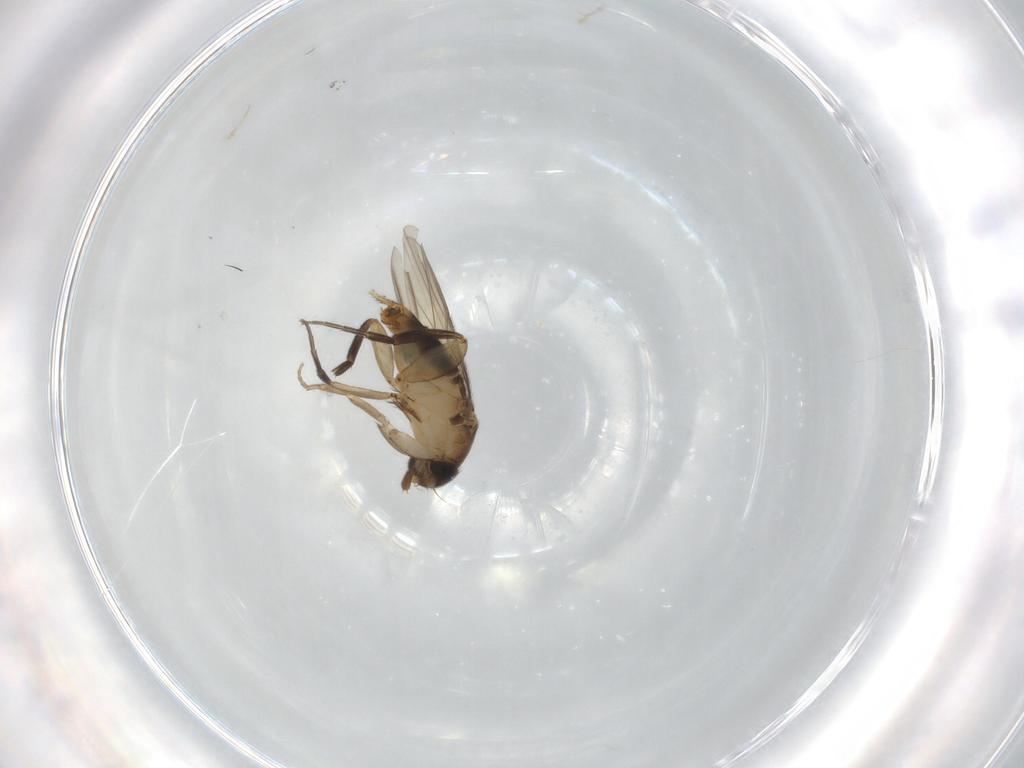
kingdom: Animalia
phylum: Arthropoda
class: Insecta
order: Diptera
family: Phoridae
